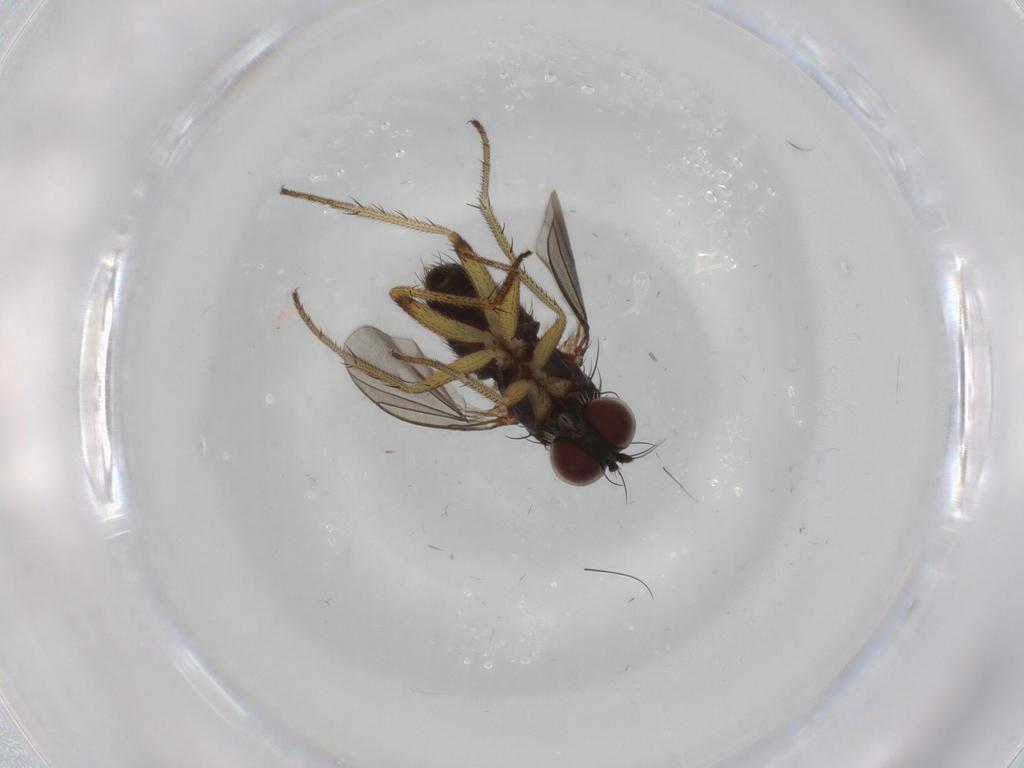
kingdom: Animalia
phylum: Arthropoda
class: Insecta
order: Diptera
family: Dolichopodidae
